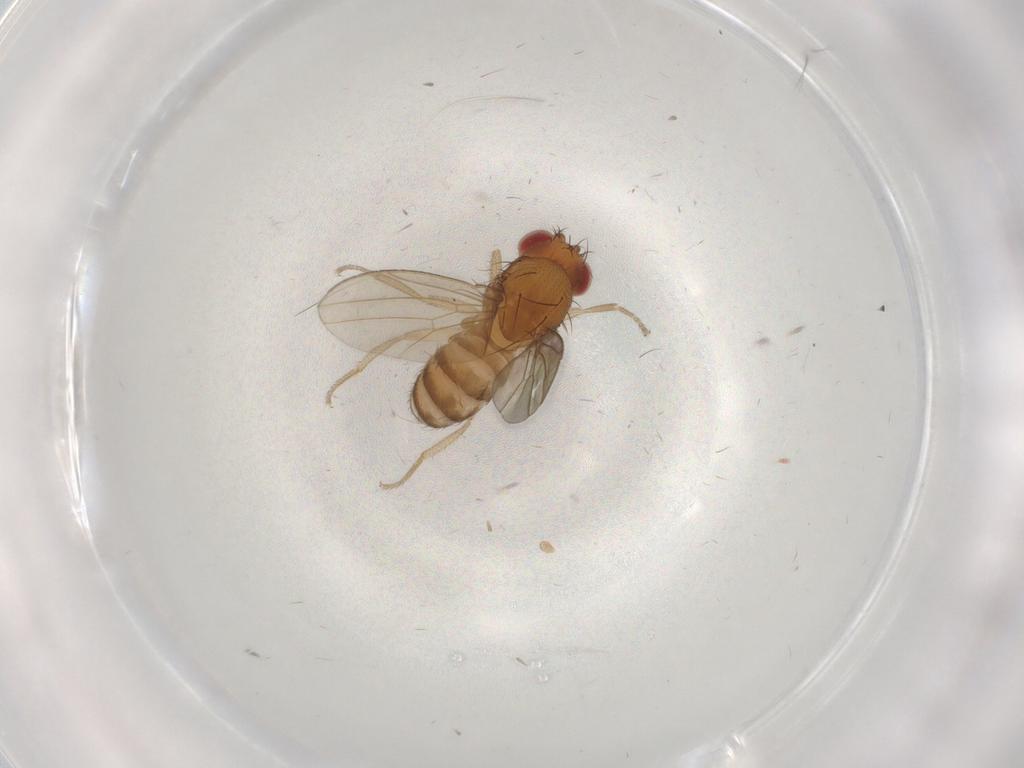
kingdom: Animalia
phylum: Arthropoda
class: Insecta
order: Diptera
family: Drosophilidae
